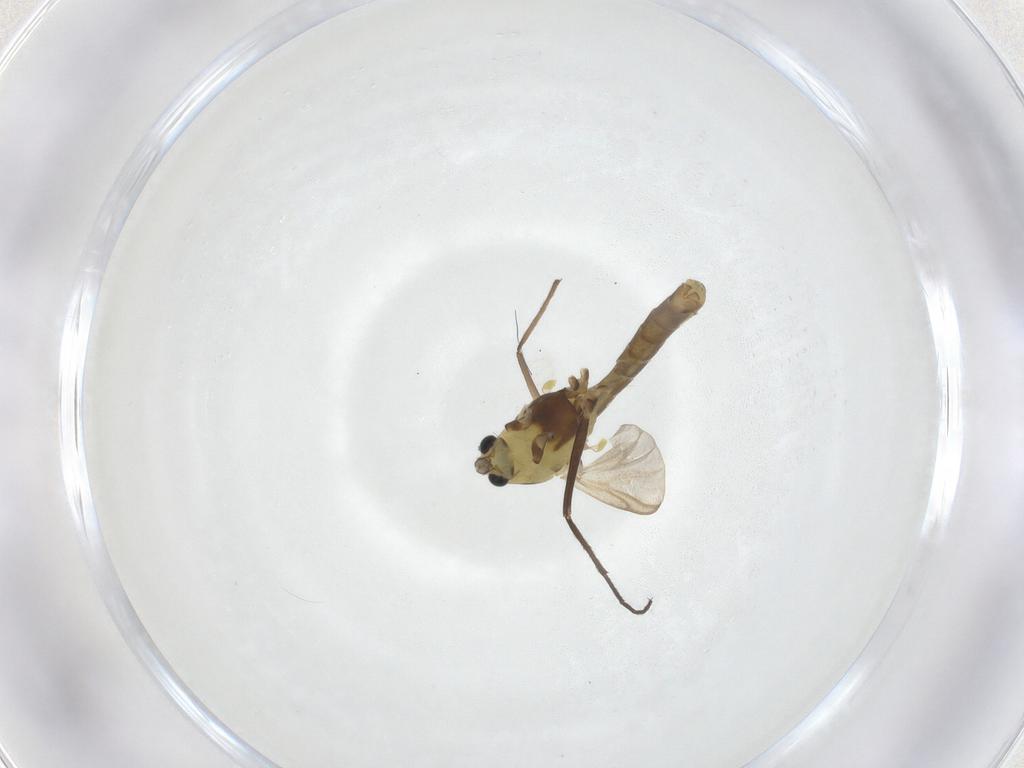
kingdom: Animalia
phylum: Arthropoda
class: Insecta
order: Diptera
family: Chironomidae
